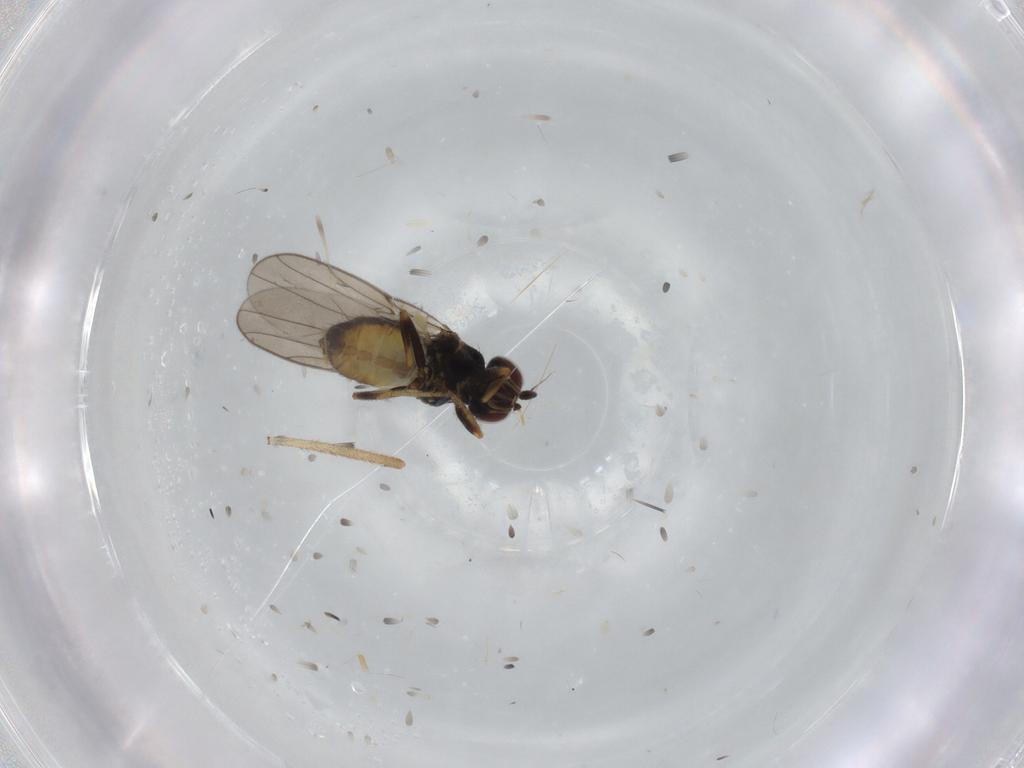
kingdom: Animalia
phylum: Arthropoda
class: Insecta
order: Diptera
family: Chloropidae
